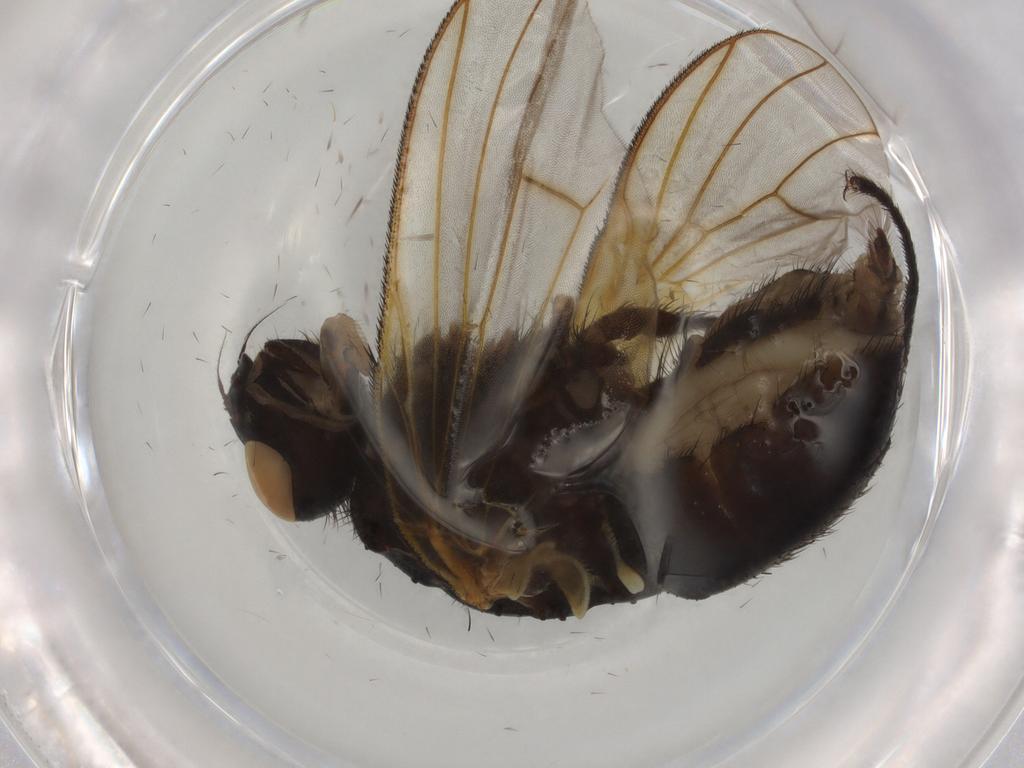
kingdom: Animalia
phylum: Arthropoda
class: Insecta
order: Diptera
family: Muscidae
